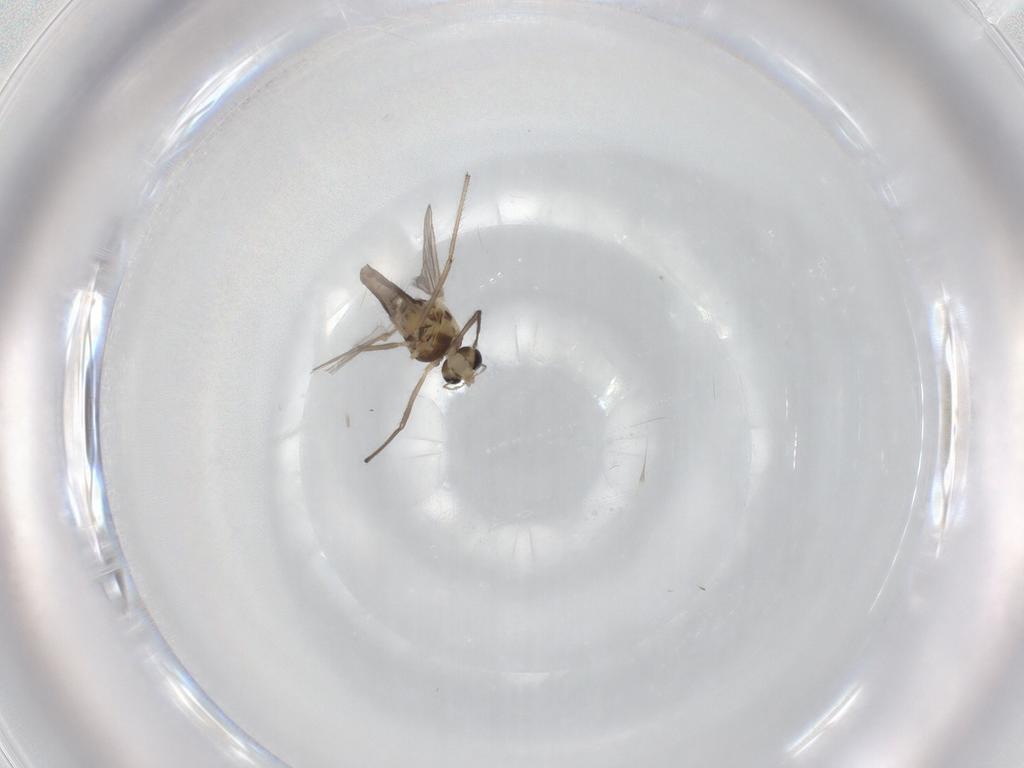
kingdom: Animalia
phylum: Arthropoda
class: Insecta
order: Diptera
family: Chironomidae
